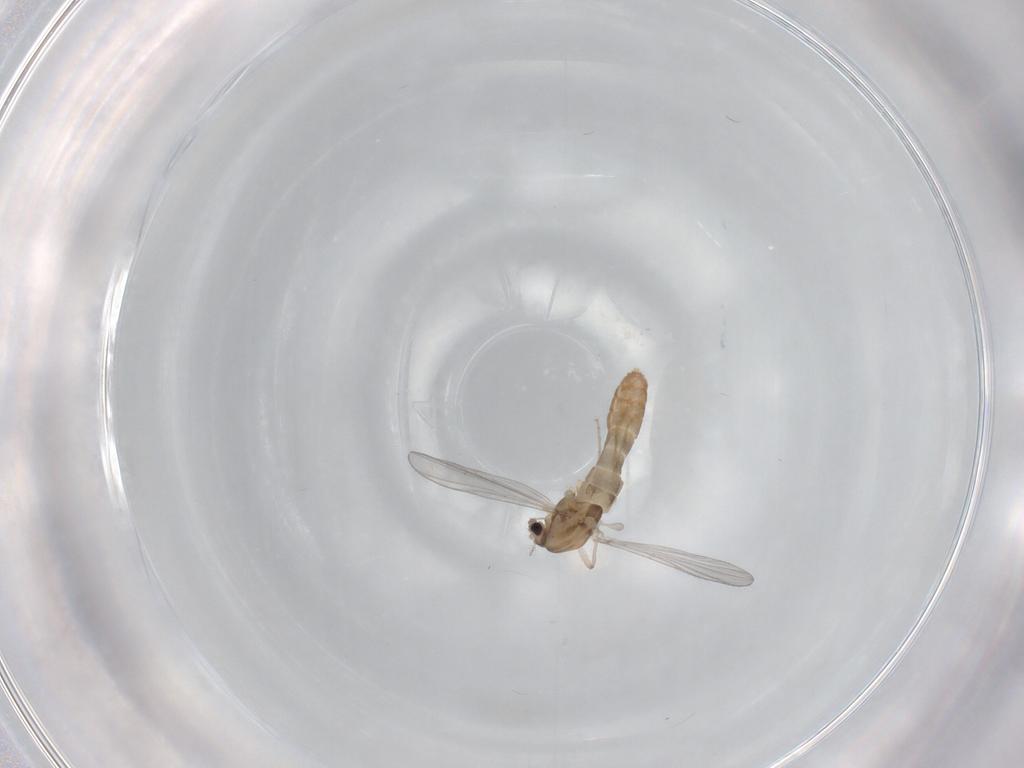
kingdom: Animalia
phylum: Arthropoda
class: Insecta
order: Diptera
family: Chironomidae
